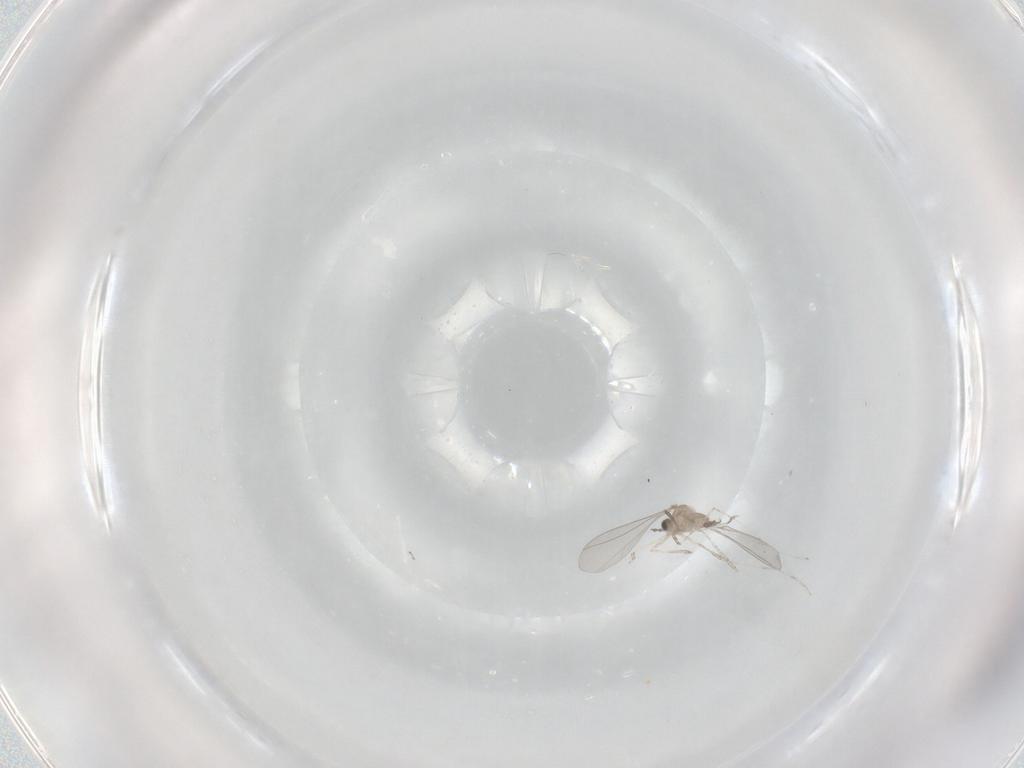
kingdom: Animalia
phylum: Arthropoda
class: Insecta
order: Diptera
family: Cecidomyiidae
